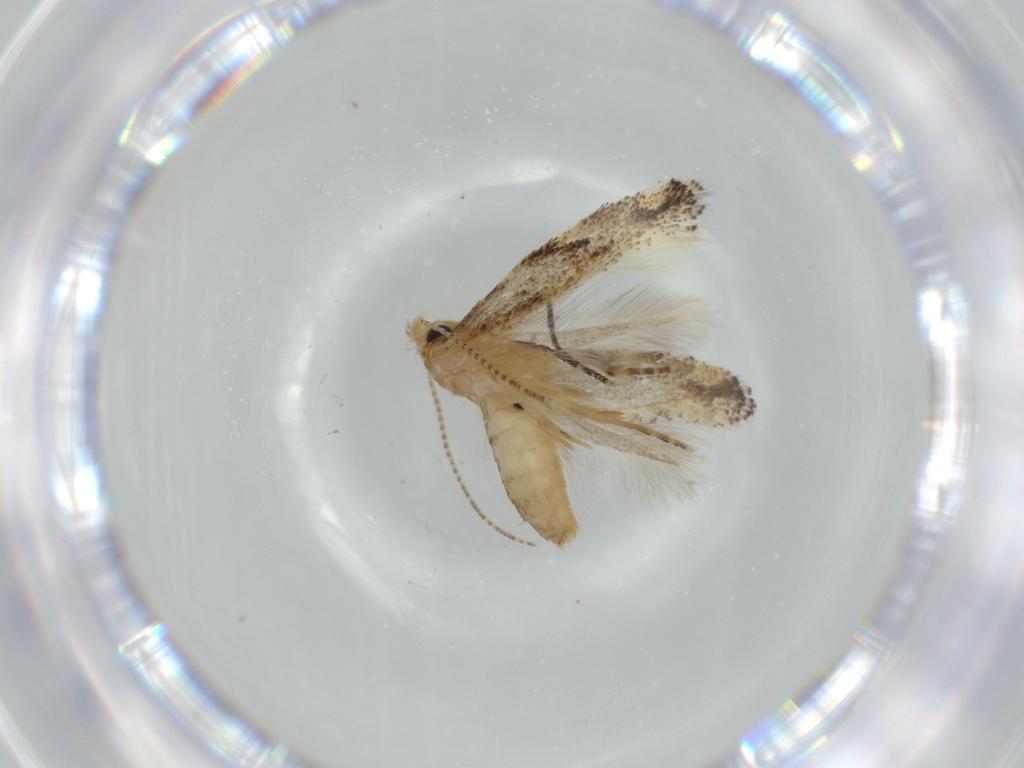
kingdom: Animalia
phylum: Arthropoda
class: Insecta
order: Lepidoptera
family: Bucculatricidae
